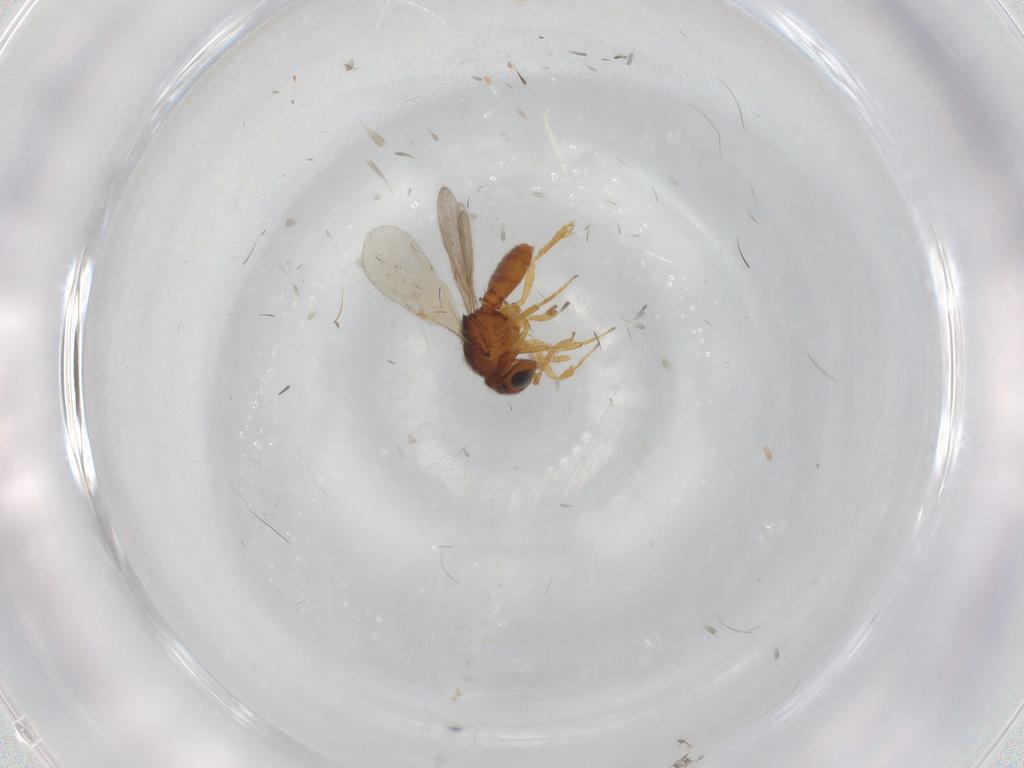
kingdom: Animalia
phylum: Arthropoda
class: Insecta
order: Hymenoptera
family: Scelionidae
